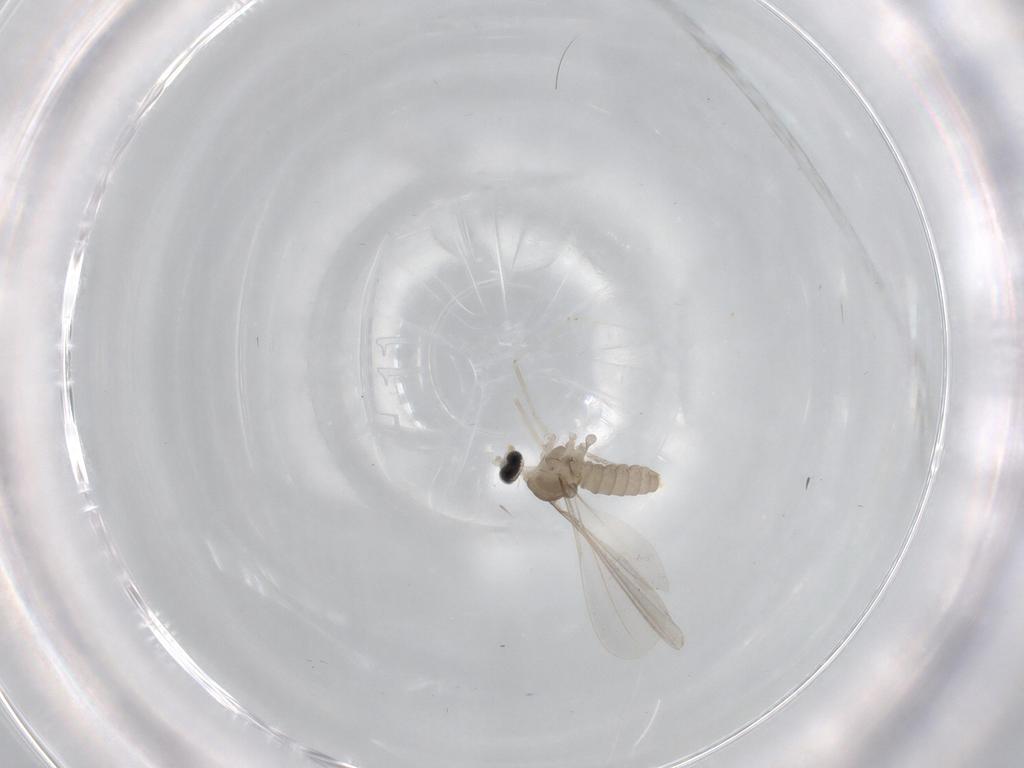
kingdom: Animalia
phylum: Arthropoda
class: Insecta
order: Diptera
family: Cecidomyiidae
